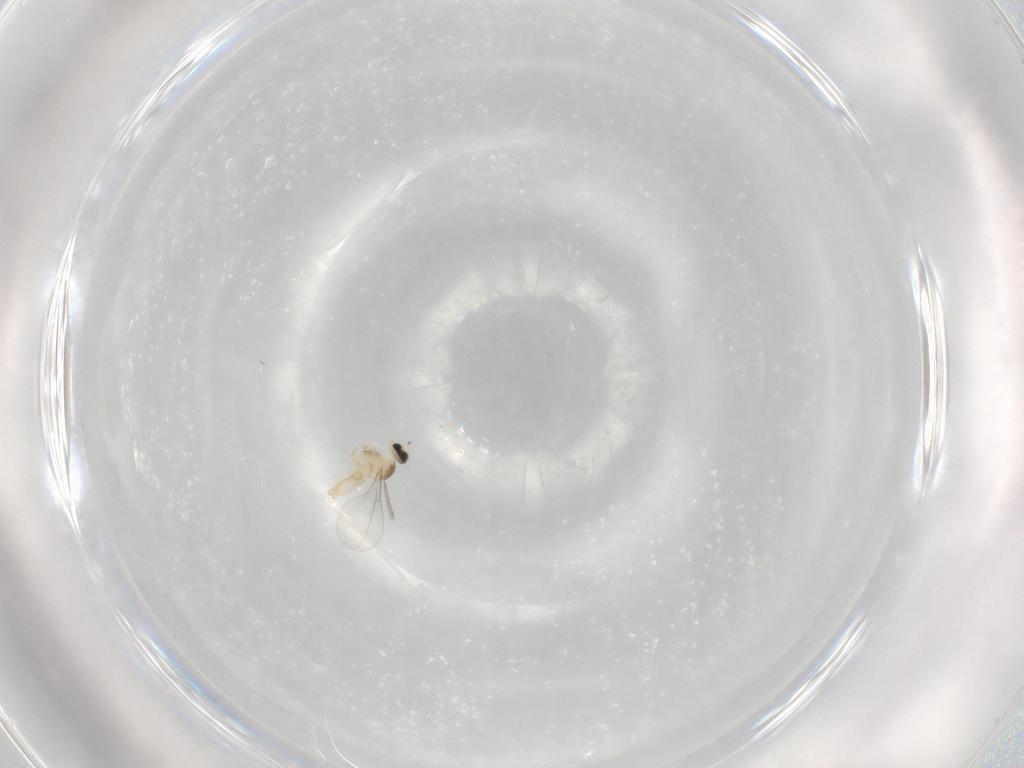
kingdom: Animalia
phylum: Arthropoda
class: Insecta
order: Diptera
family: Cecidomyiidae
